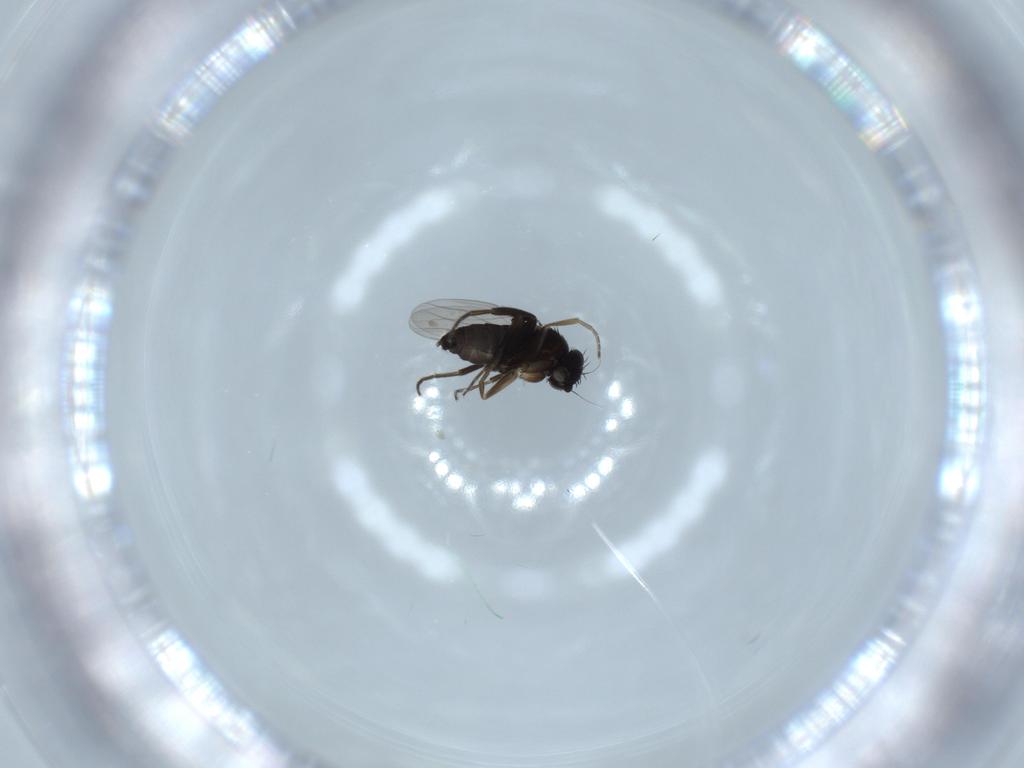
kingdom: Animalia
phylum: Arthropoda
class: Insecta
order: Diptera
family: Phoridae
